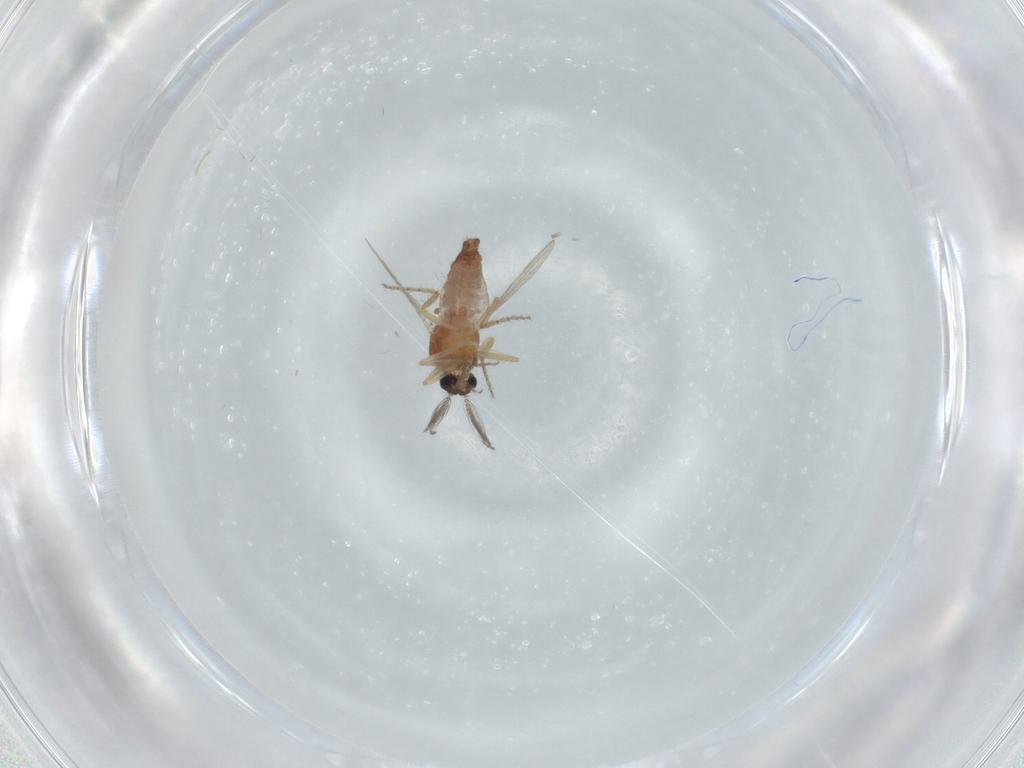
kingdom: Animalia
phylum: Arthropoda
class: Insecta
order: Diptera
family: Ceratopogonidae
